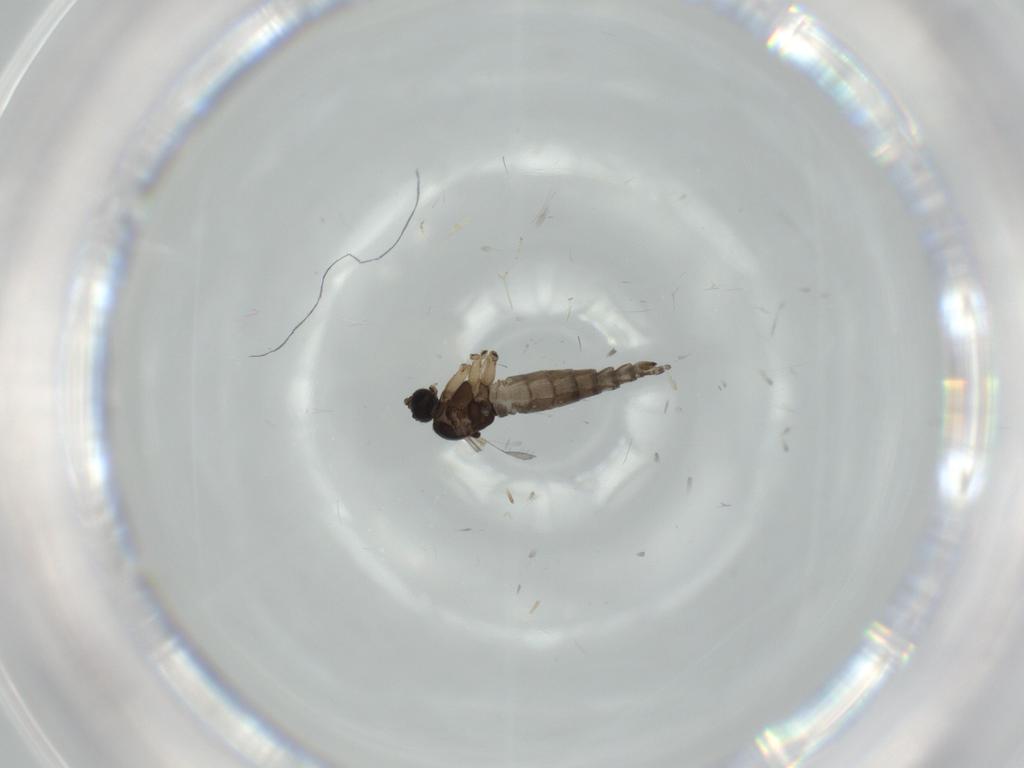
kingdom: Animalia
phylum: Arthropoda
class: Insecta
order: Diptera
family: Sciaridae
